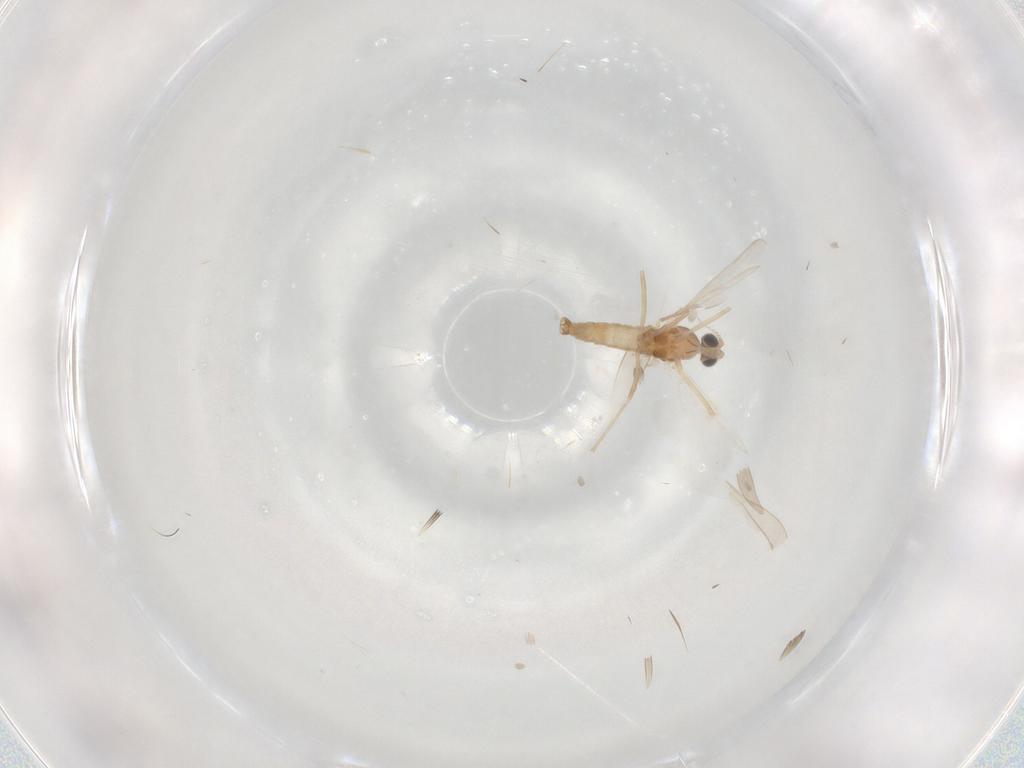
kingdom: Animalia
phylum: Arthropoda
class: Insecta
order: Diptera
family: Cecidomyiidae
